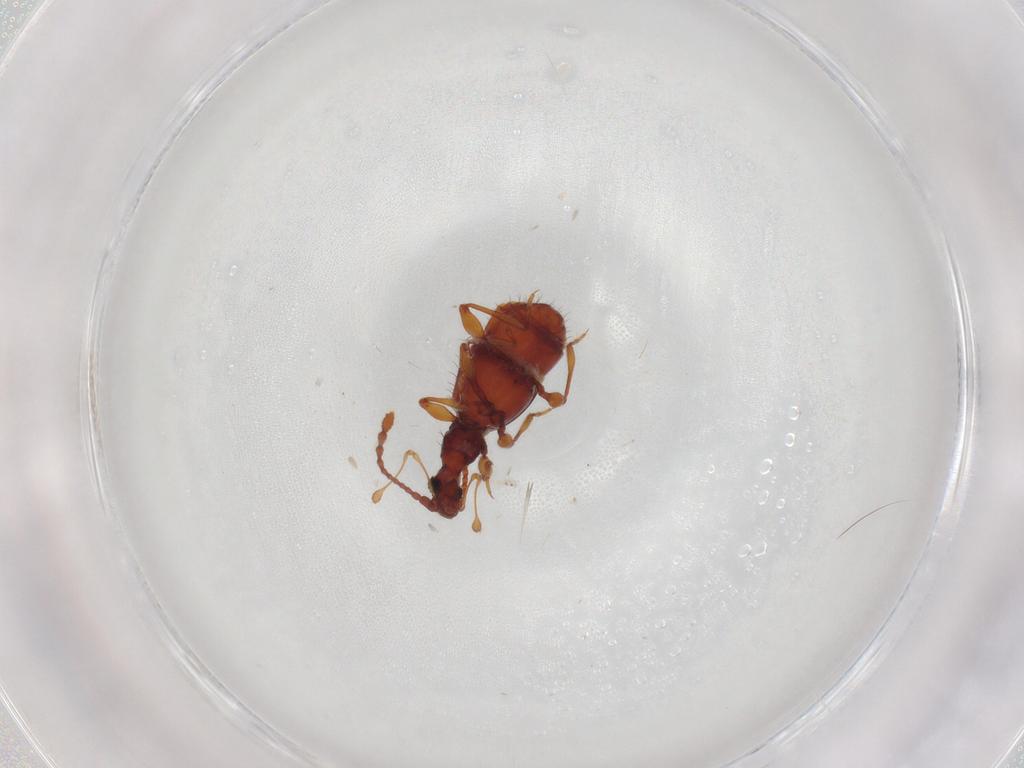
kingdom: Animalia
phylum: Arthropoda
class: Insecta
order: Coleoptera
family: Staphylinidae
